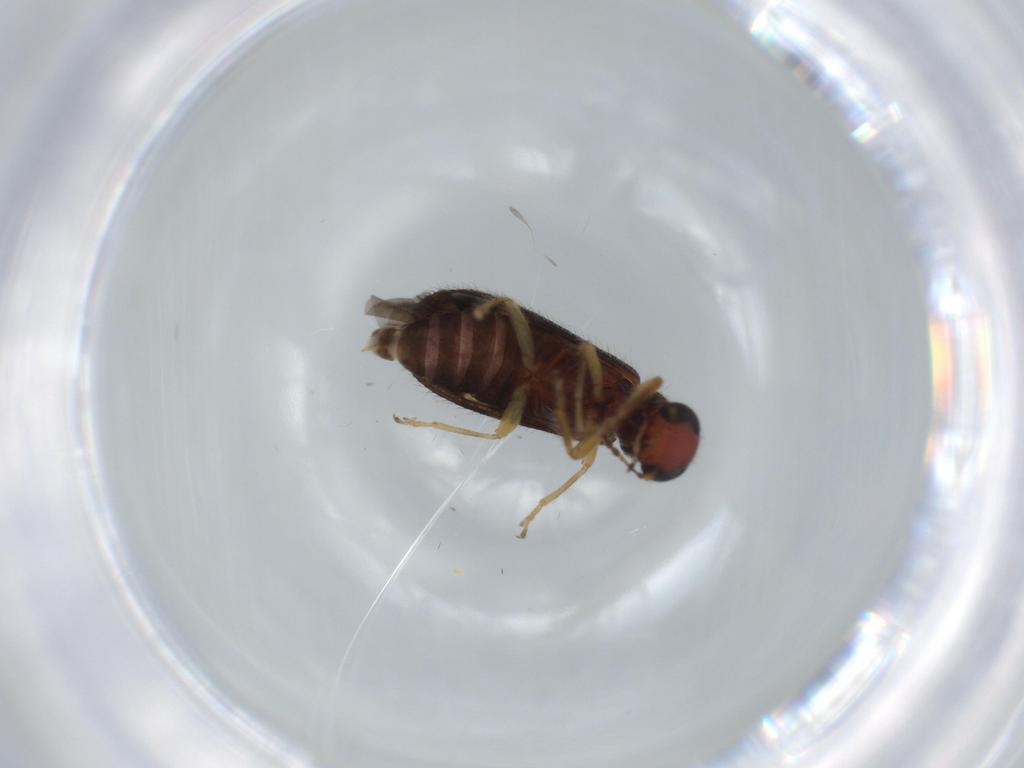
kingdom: Animalia
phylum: Arthropoda
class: Insecta
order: Coleoptera
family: Cleridae
